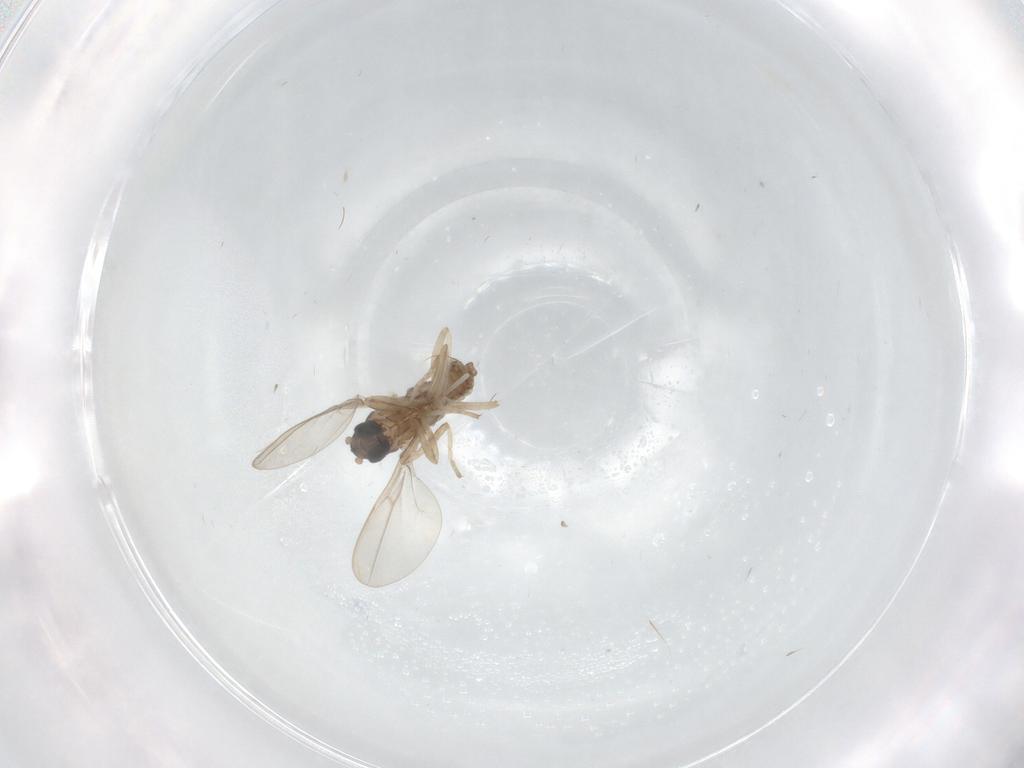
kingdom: Animalia
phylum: Arthropoda
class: Insecta
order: Diptera
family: Cecidomyiidae
